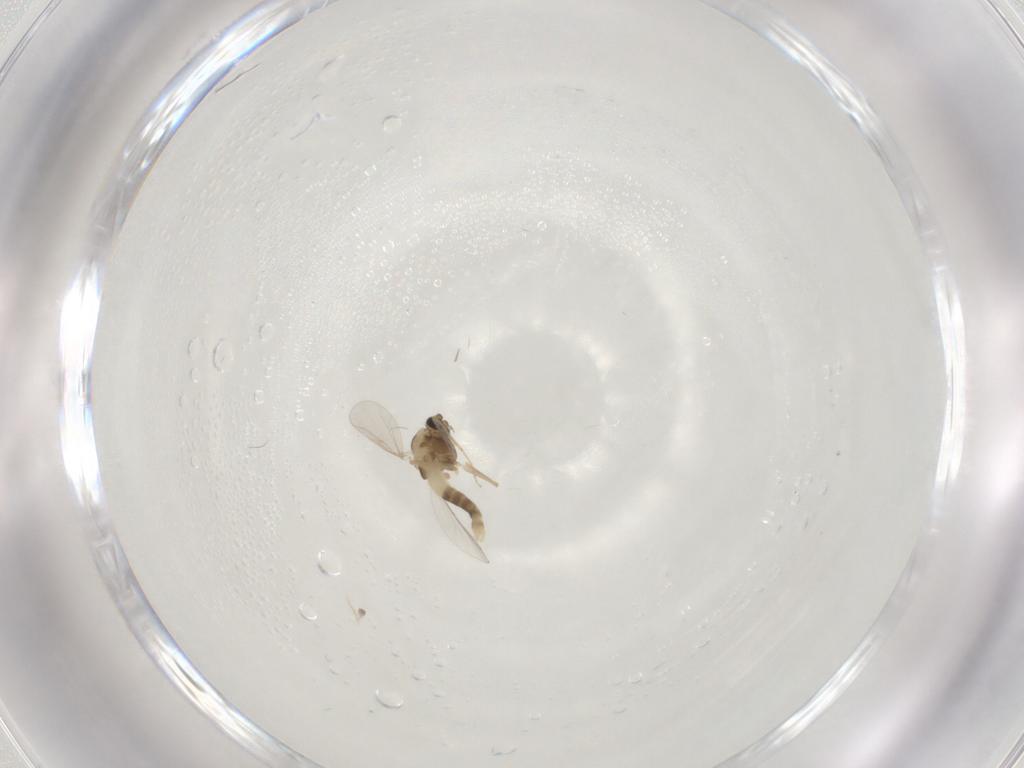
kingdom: Animalia
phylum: Arthropoda
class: Insecta
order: Diptera
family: Chironomidae
